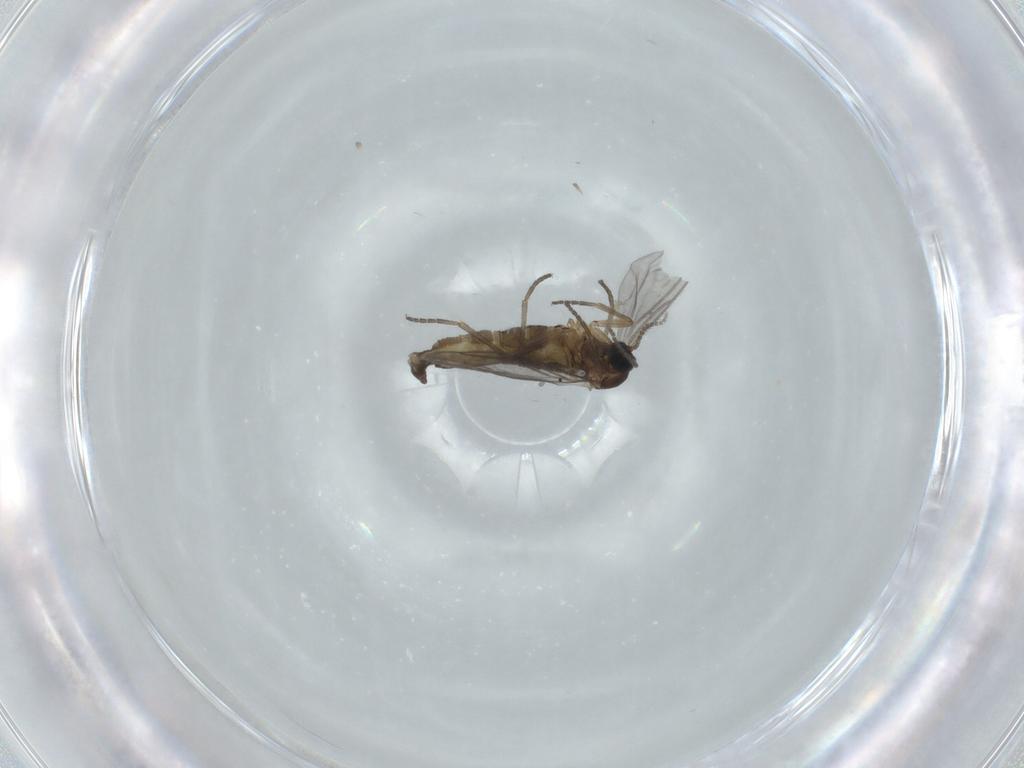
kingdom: Animalia
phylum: Arthropoda
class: Insecta
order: Diptera
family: Sciaridae
